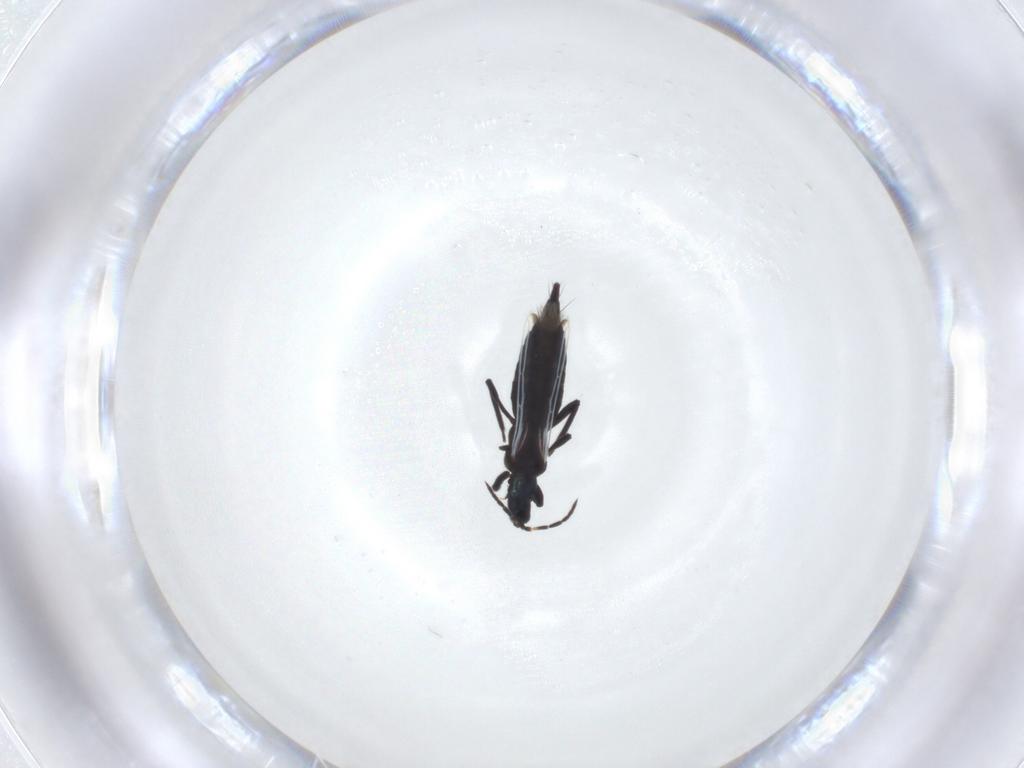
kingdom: Animalia
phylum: Arthropoda
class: Insecta
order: Thysanoptera
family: Aeolothripidae
